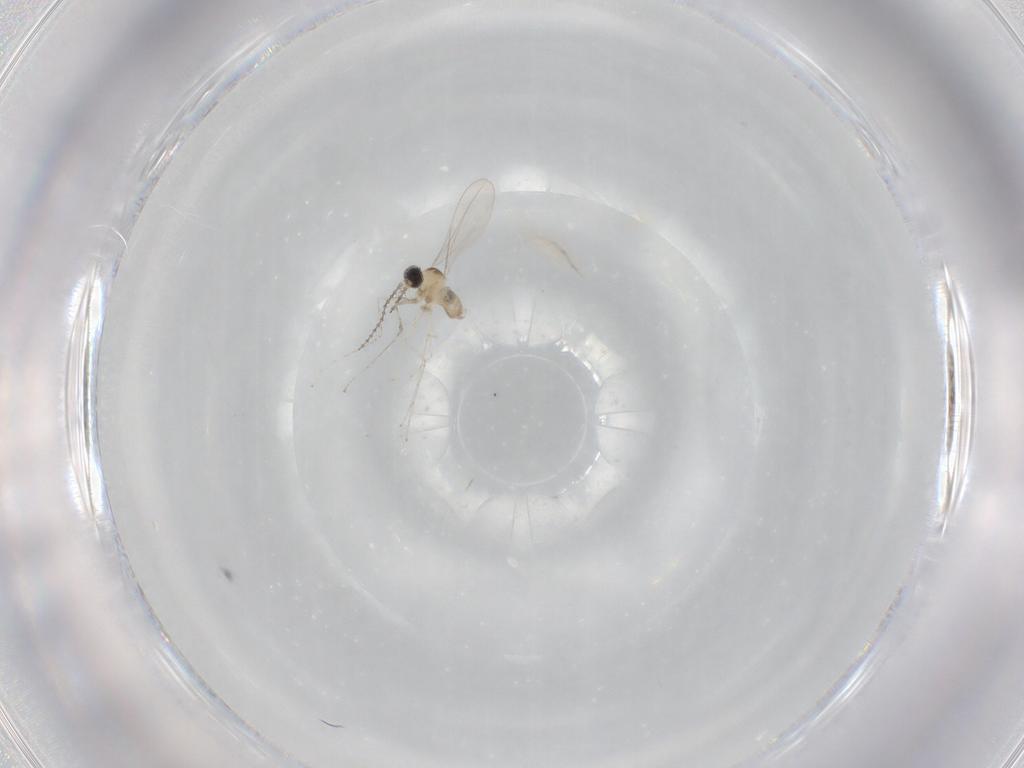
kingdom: Animalia
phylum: Arthropoda
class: Insecta
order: Diptera
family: Cecidomyiidae
